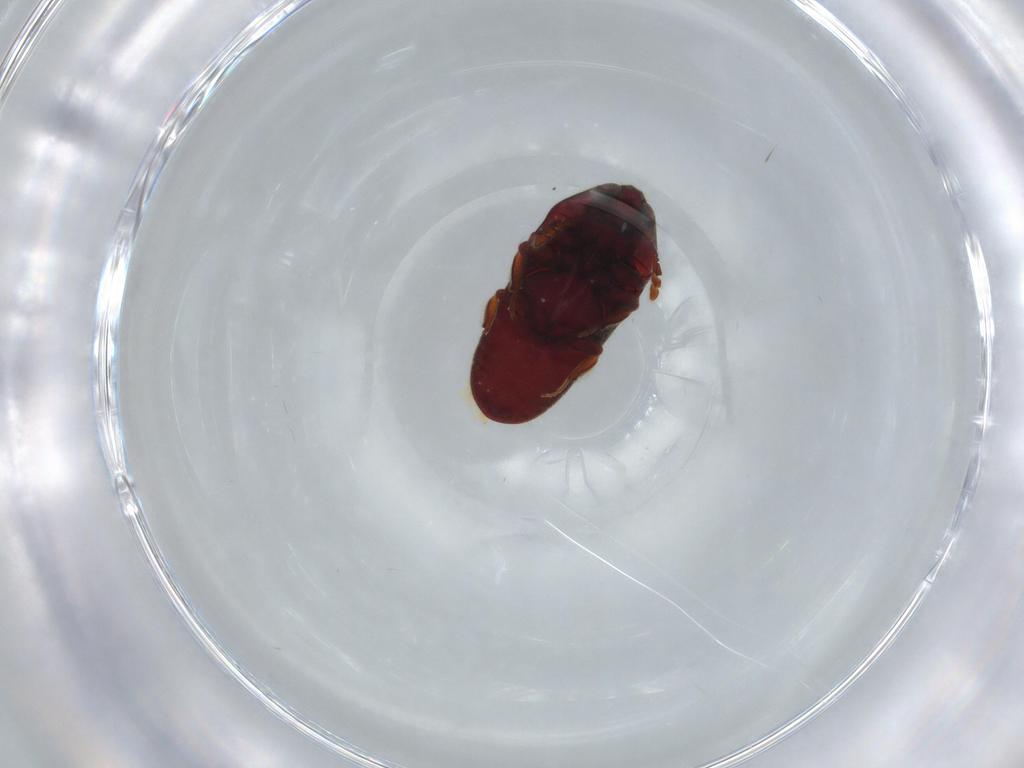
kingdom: Animalia
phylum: Arthropoda
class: Insecta
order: Coleoptera
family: Throscidae
